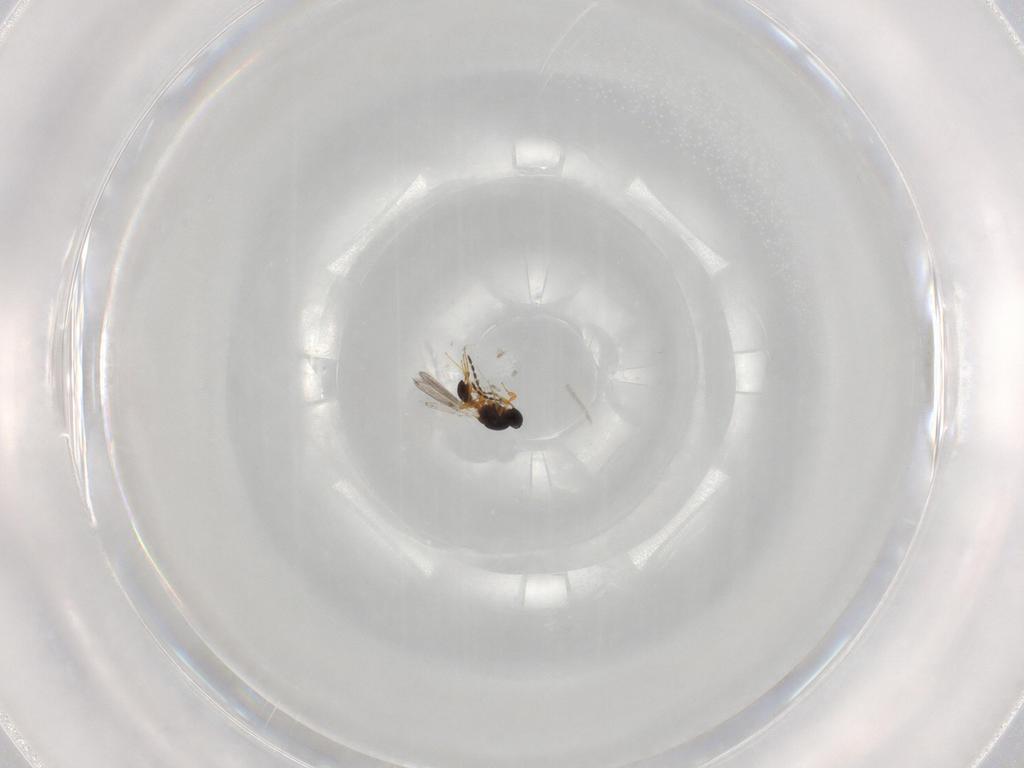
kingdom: Animalia
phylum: Arthropoda
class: Insecta
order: Hymenoptera
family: Platygastridae
